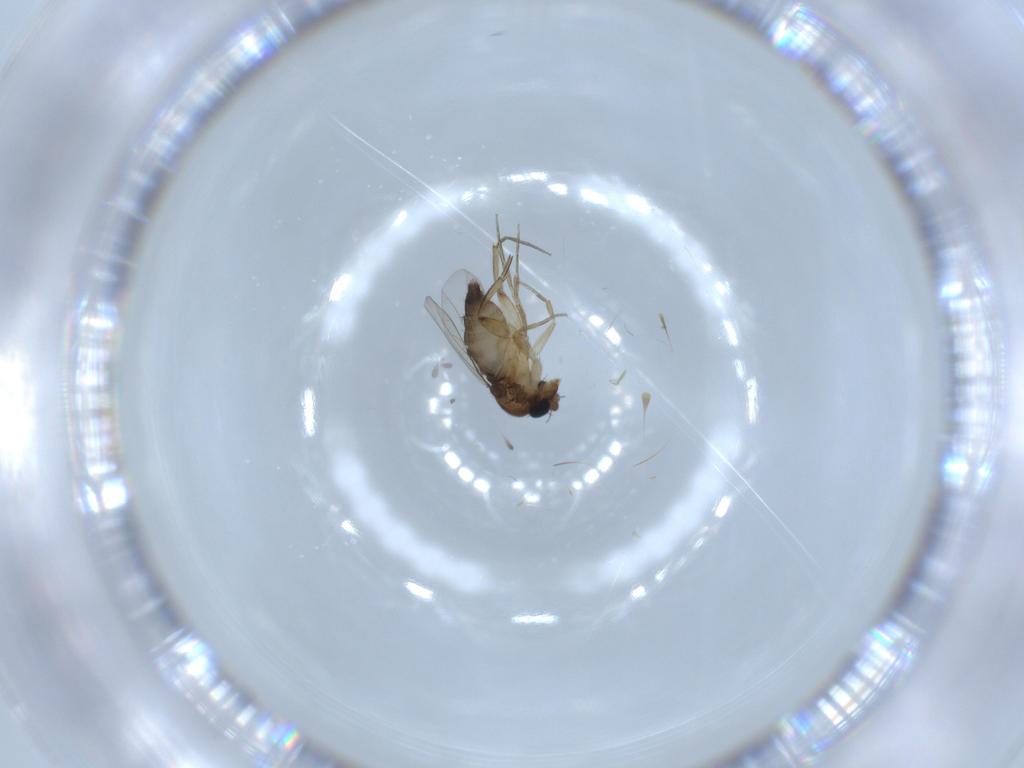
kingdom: Animalia
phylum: Arthropoda
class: Insecta
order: Diptera
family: Phoridae
